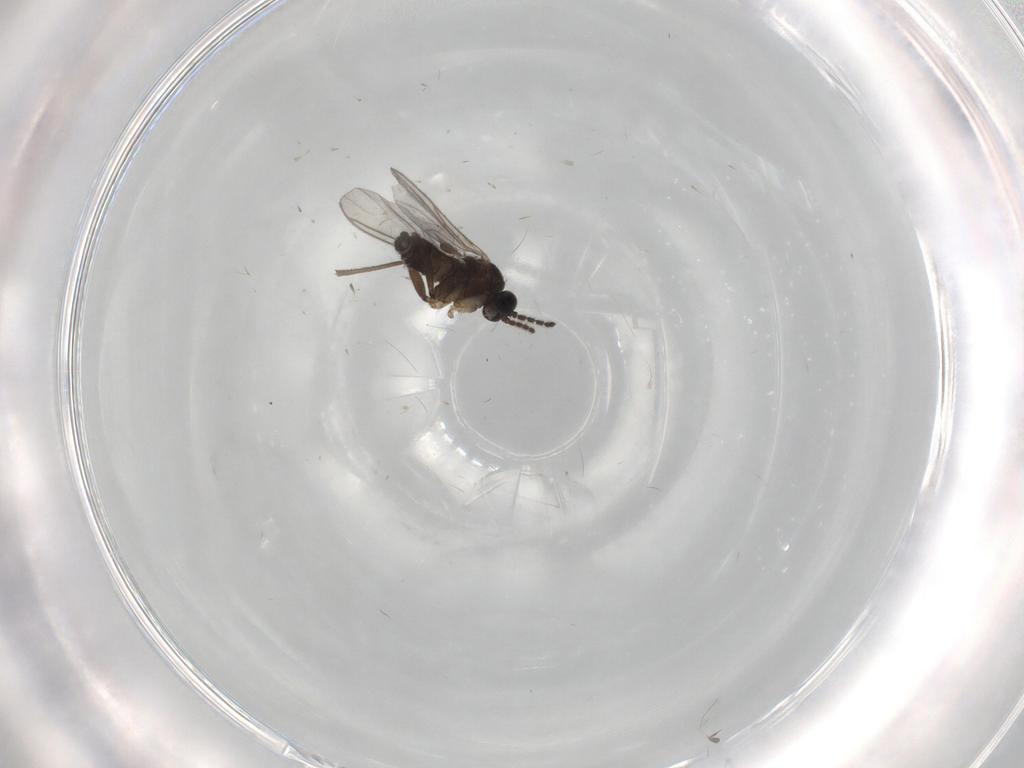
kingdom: Animalia
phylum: Arthropoda
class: Insecta
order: Diptera
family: Sciaridae
